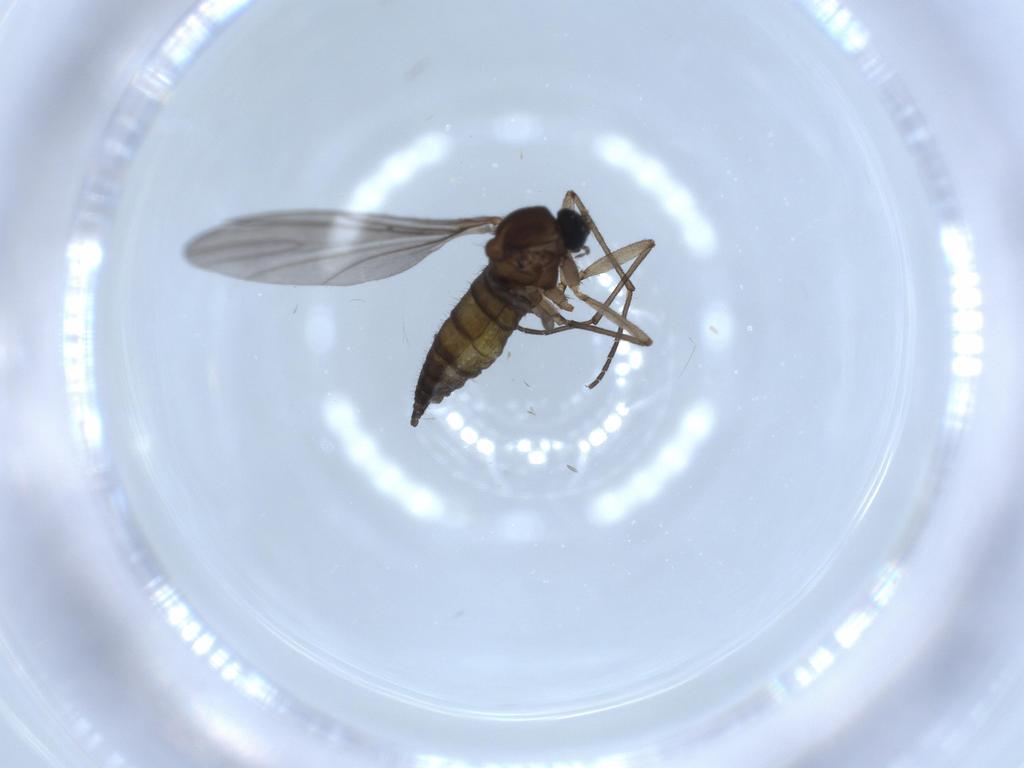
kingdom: Animalia
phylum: Arthropoda
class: Insecta
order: Diptera
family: Sciaridae
